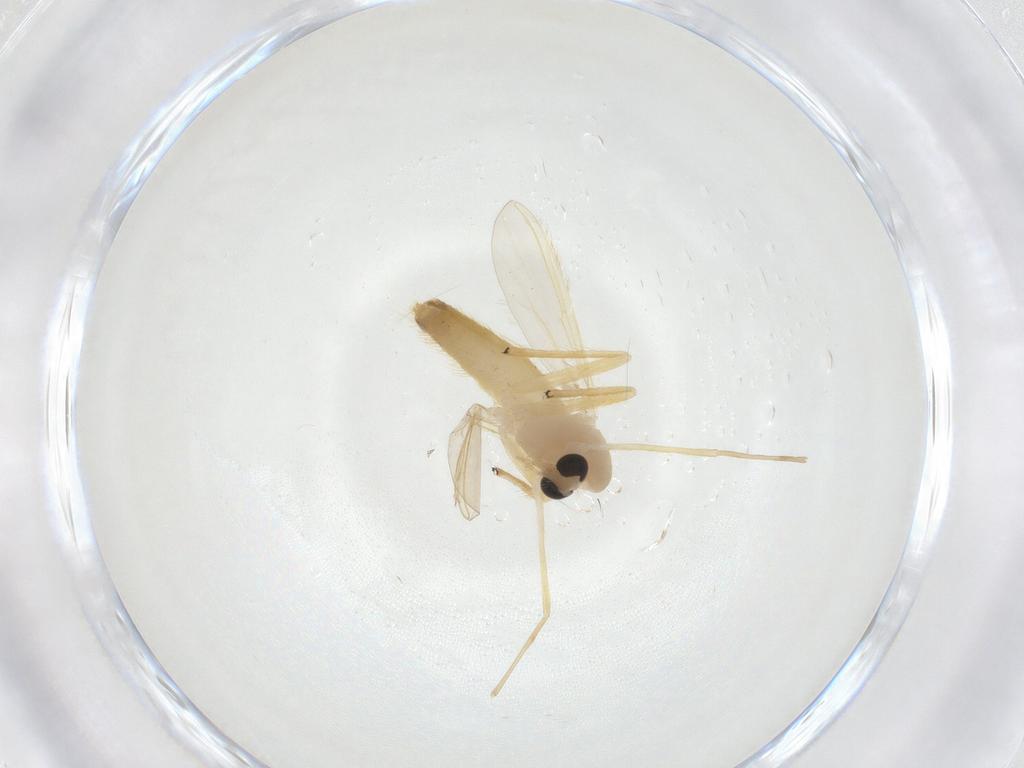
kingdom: Animalia
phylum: Arthropoda
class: Insecta
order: Diptera
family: Chironomidae
